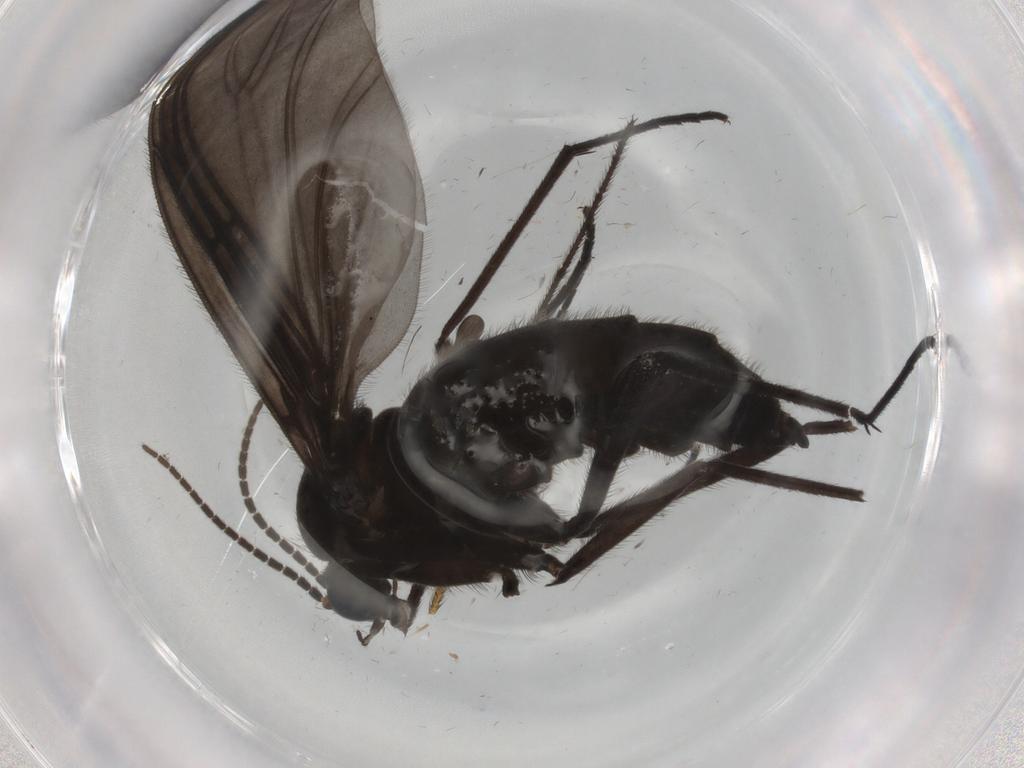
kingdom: Animalia
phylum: Arthropoda
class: Insecta
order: Diptera
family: Sciaridae
